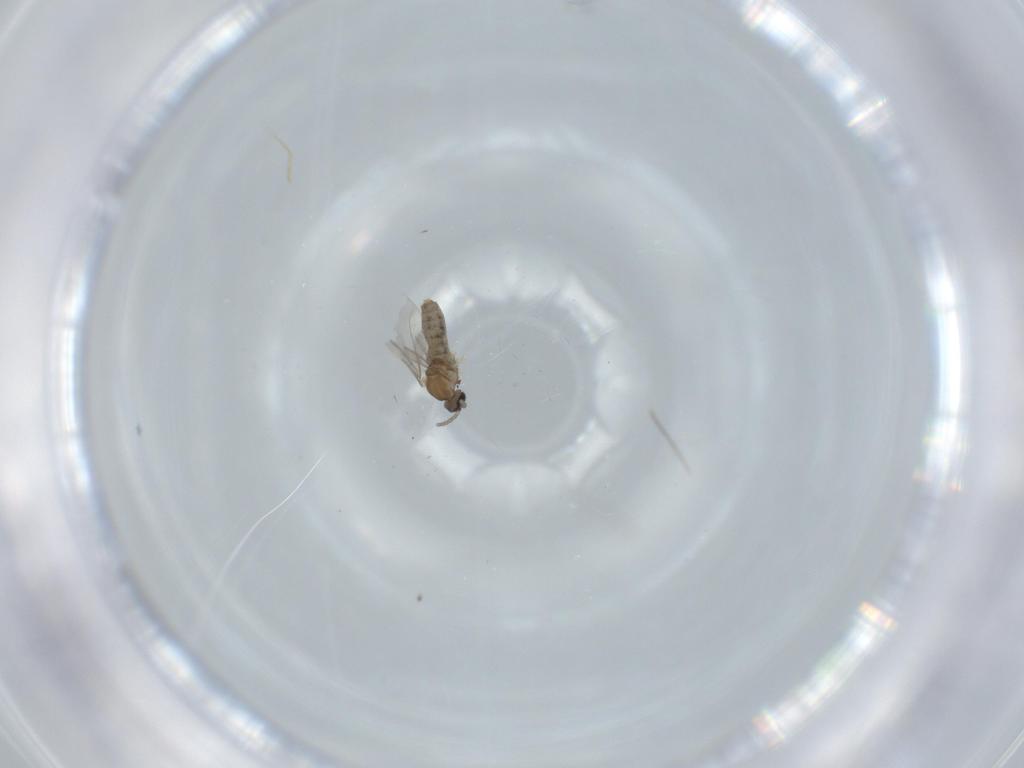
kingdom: Animalia
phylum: Arthropoda
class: Insecta
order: Diptera
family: Cecidomyiidae
